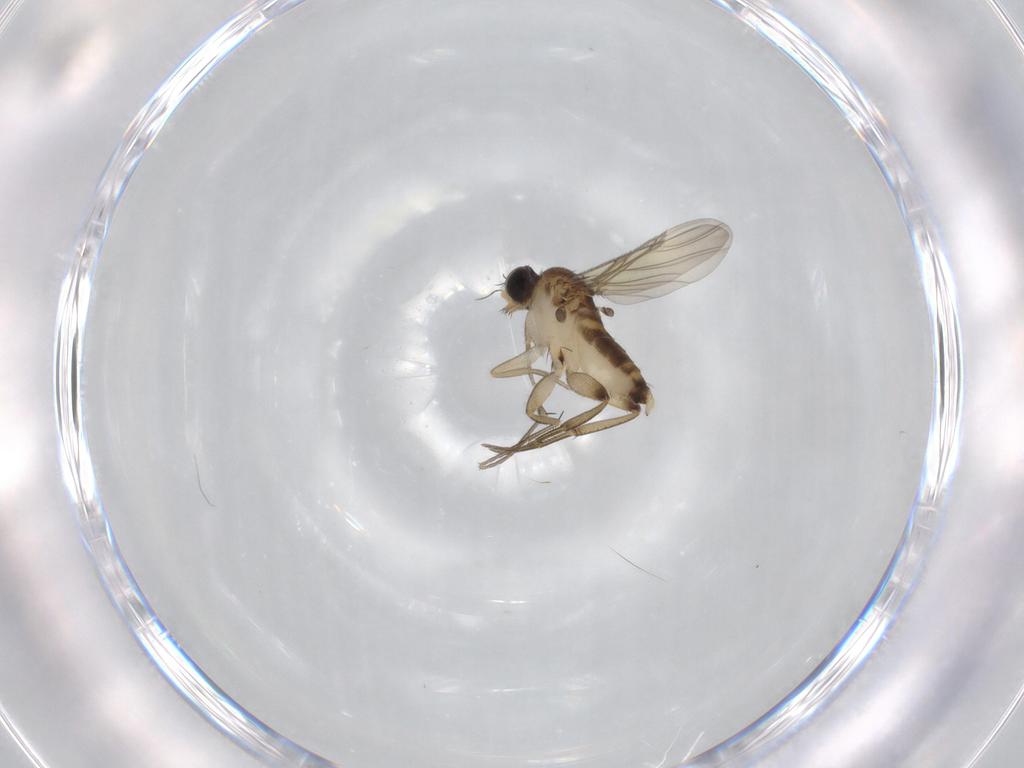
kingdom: Animalia
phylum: Arthropoda
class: Insecta
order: Diptera
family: Phoridae
